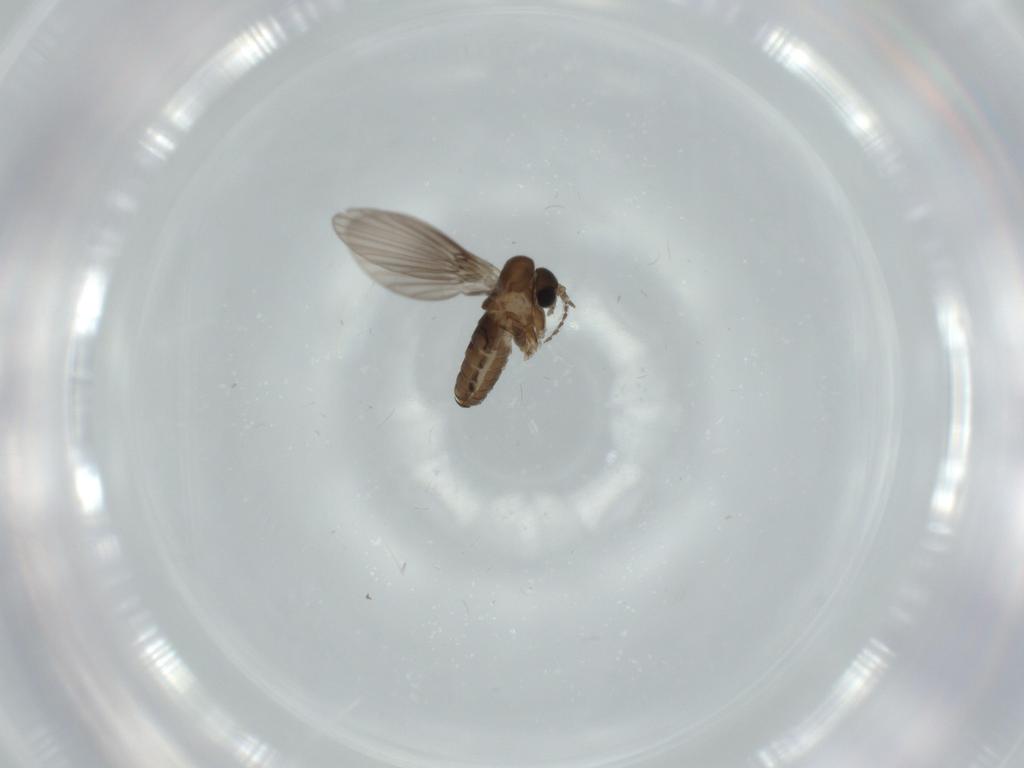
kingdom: Animalia
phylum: Arthropoda
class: Insecta
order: Diptera
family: Psychodidae
